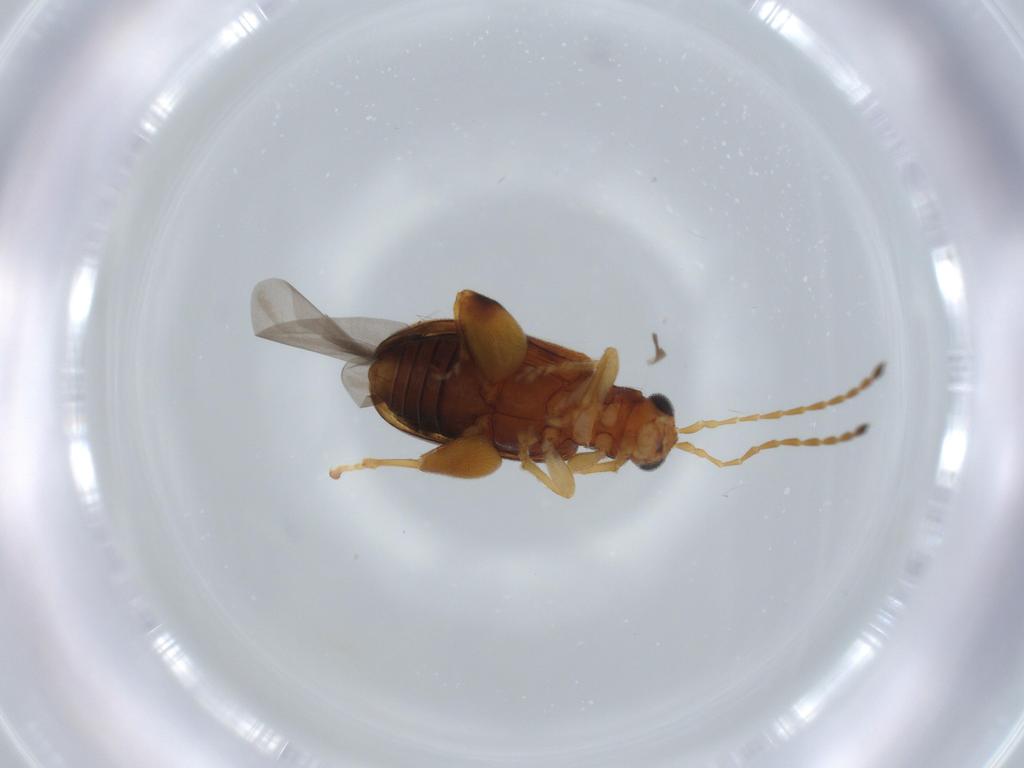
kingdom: Animalia
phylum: Arthropoda
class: Insecta
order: Coleoptera
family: Chrysomelidae
